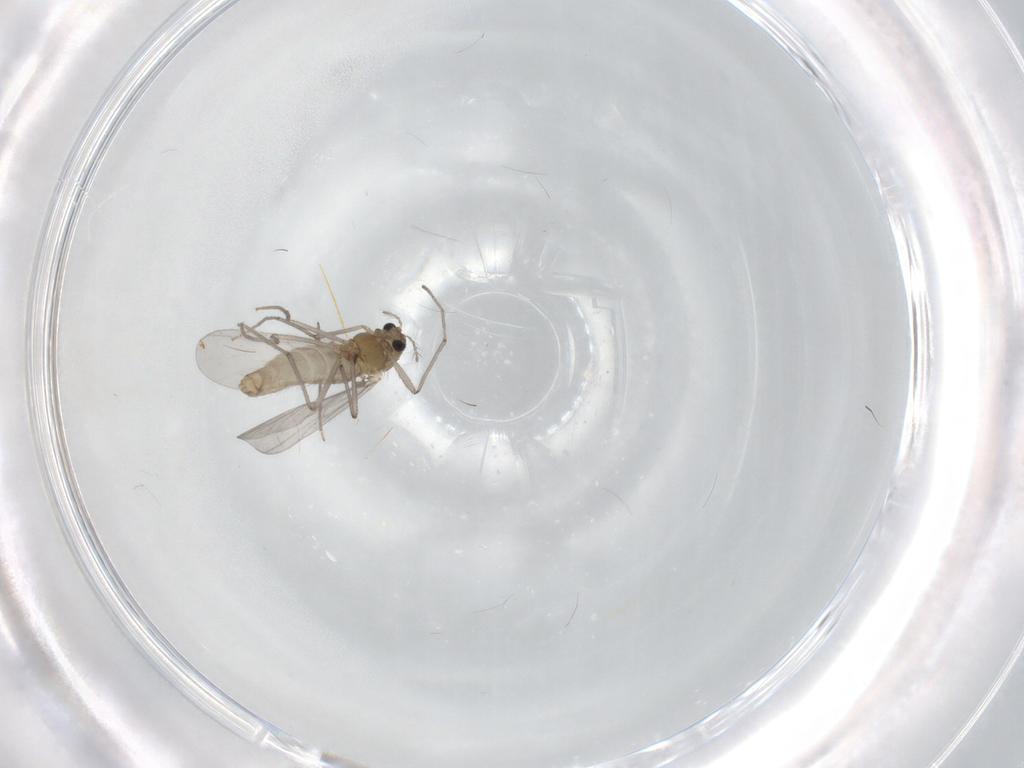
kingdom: Animalia
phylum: Arthropoda
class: Insecta
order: Diptera
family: Chironomidae
